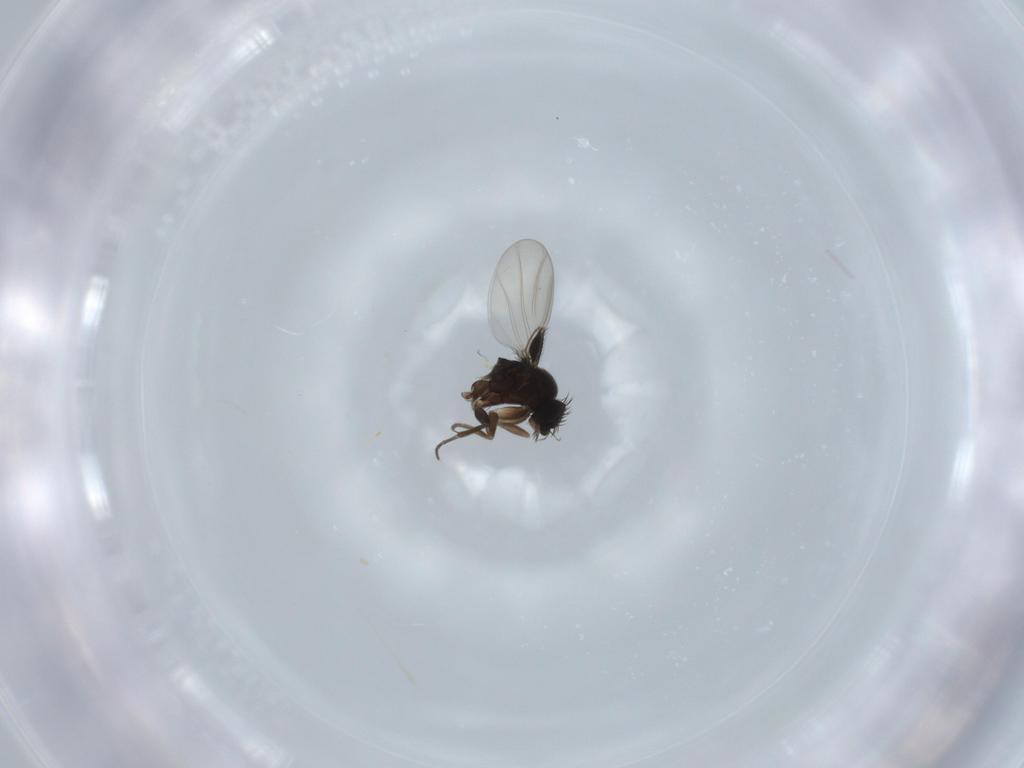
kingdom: Animalia
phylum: Arthropoda
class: Insecta
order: Diptera
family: Phoridae
